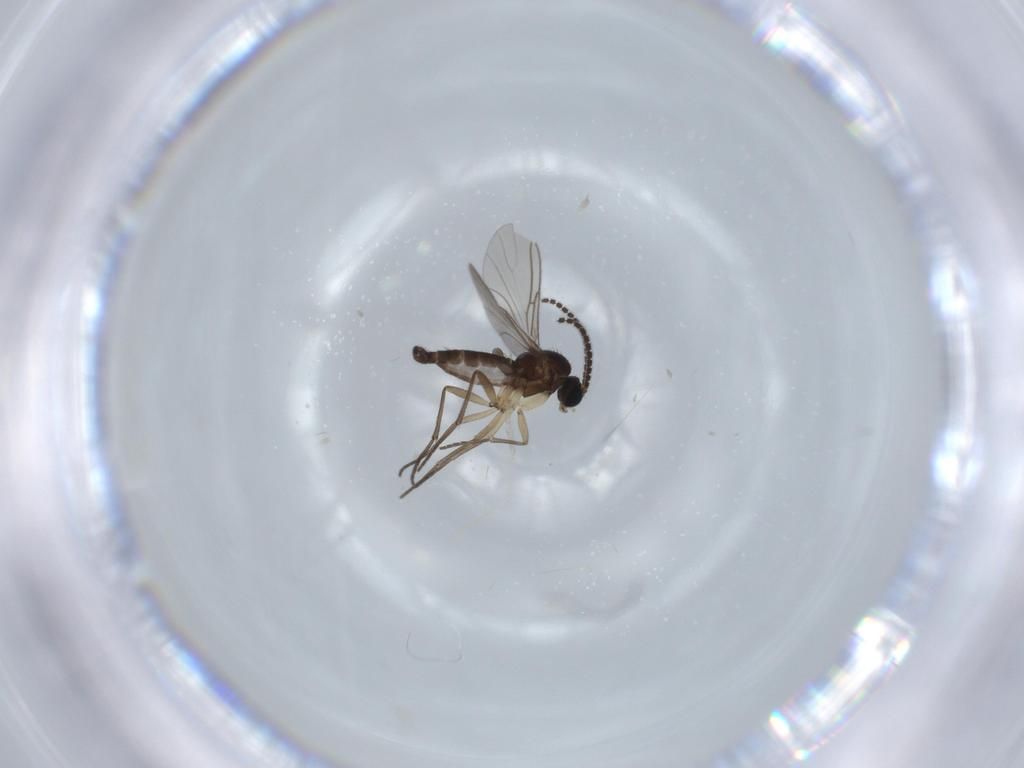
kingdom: Animalia
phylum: Arthropoda
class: Insecta
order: Diptera
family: Sciaridae
